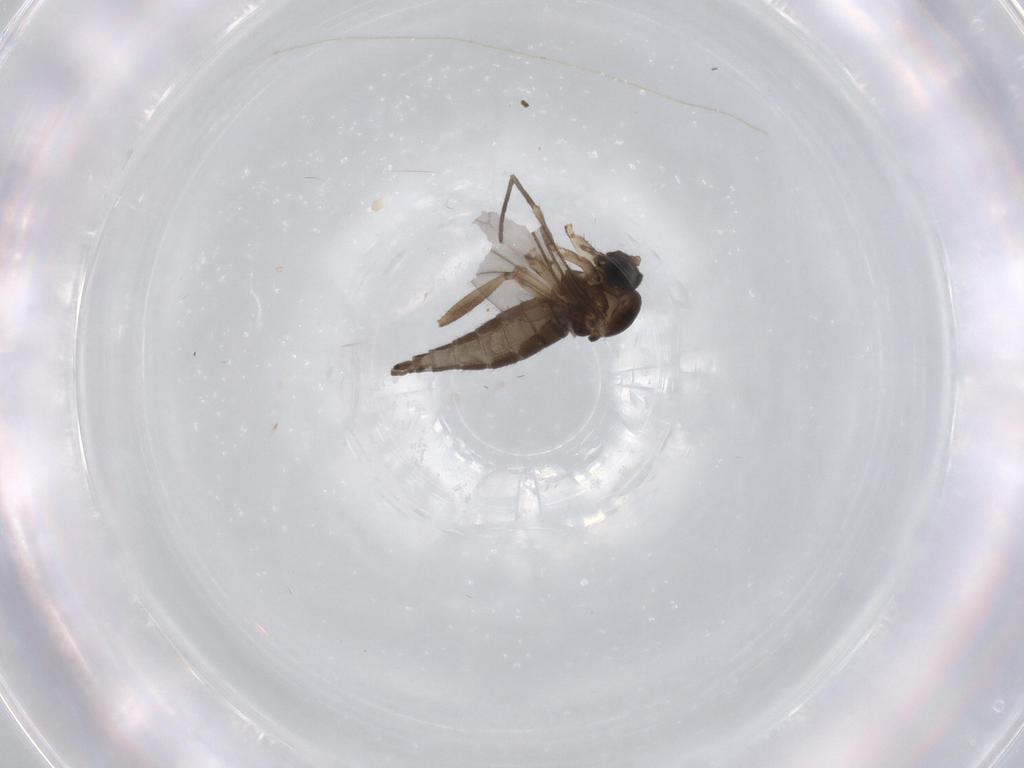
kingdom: Animalia
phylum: Arthropoda
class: Insecta
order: Diptera
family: Sciaridae
